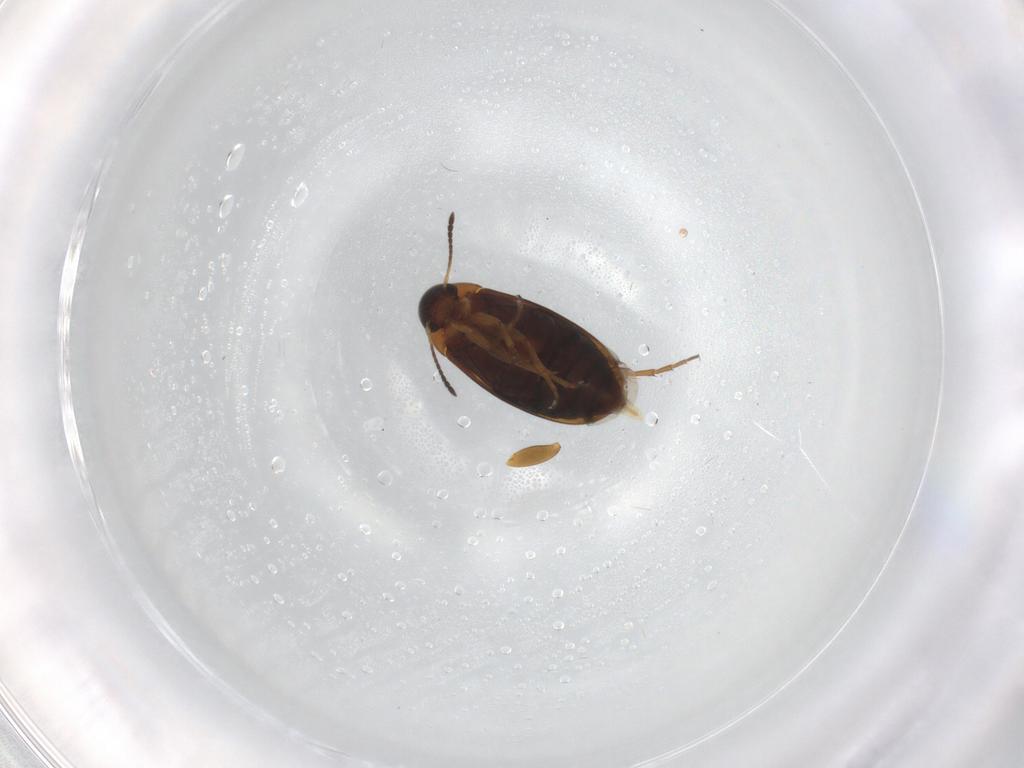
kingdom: Animalia
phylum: Arthropoda
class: Insecta
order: Coleoptera
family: Scraptiidae
